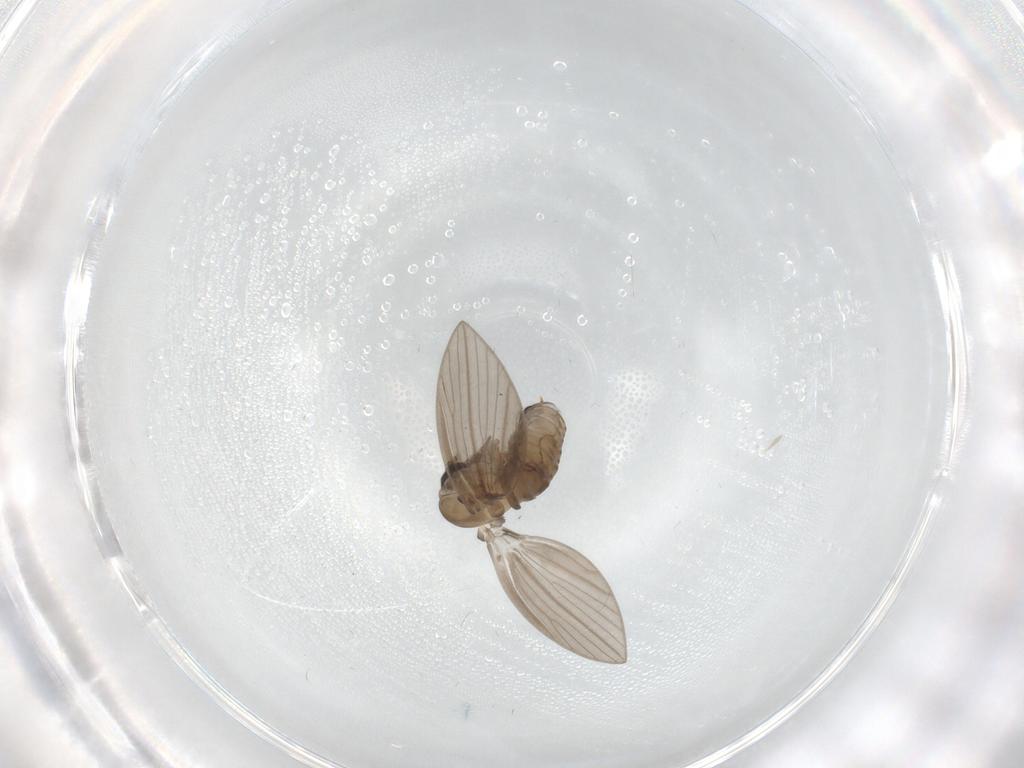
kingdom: Animalia
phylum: Arthropoda
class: Insecta
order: Diptera
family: Psychodidae
